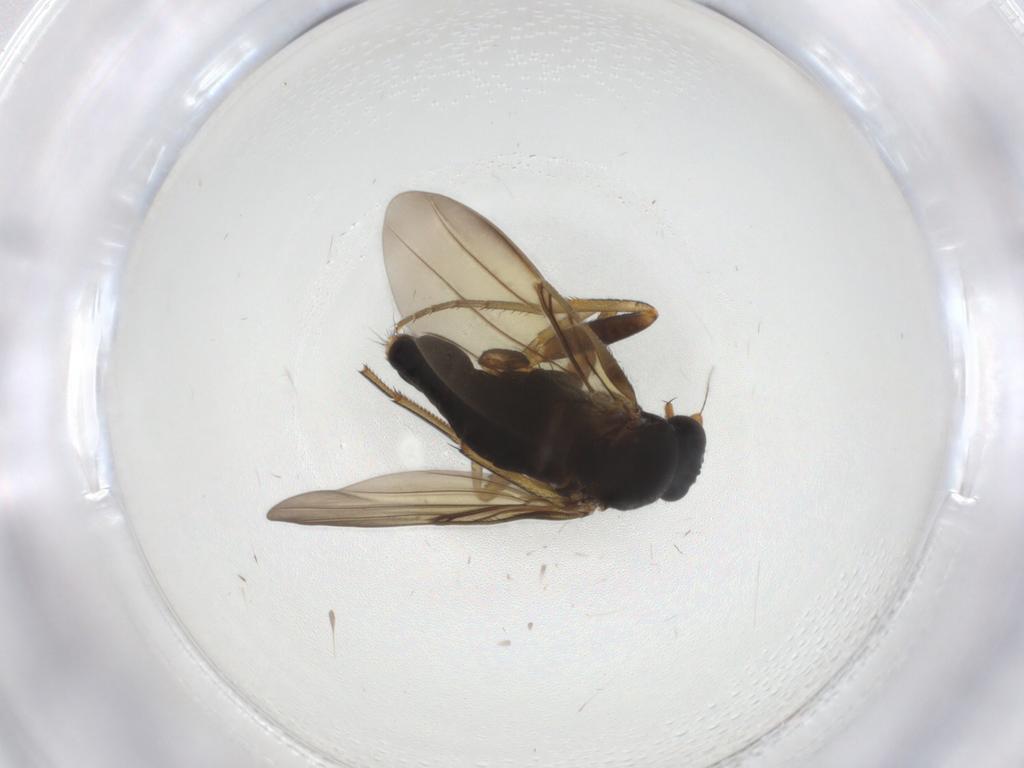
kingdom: Animalia
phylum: Arthropoda
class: Insecta
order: Diptera
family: Phoridae
